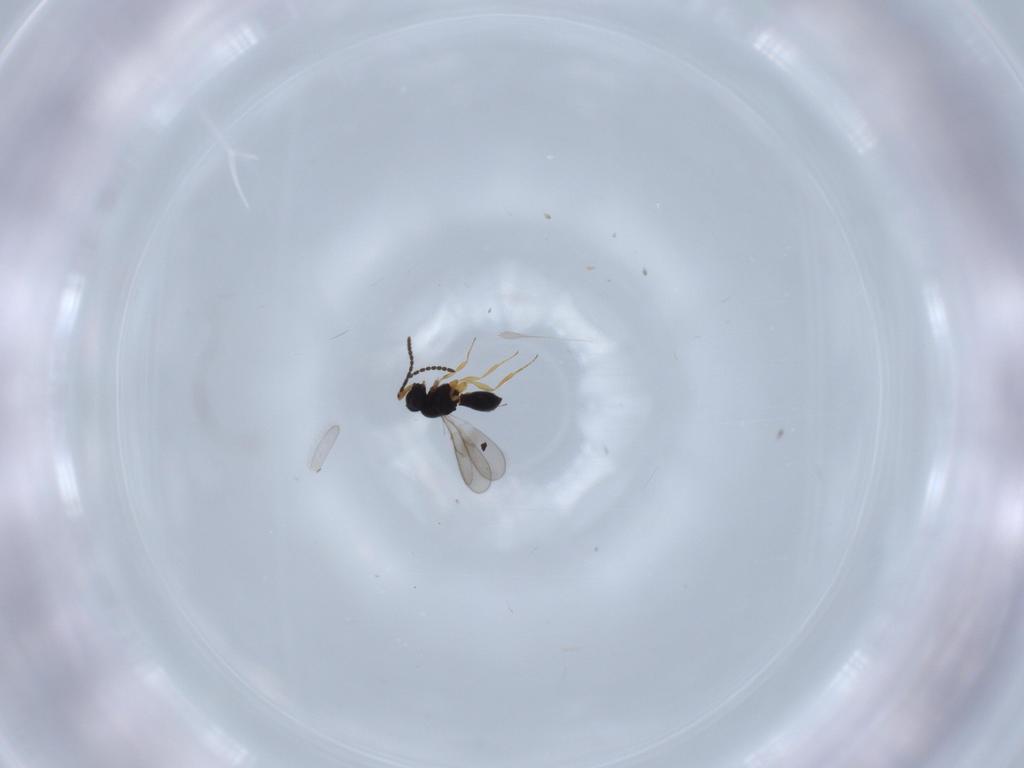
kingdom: Animalia
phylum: Arthropoda
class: Insecta
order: Hymenoptera
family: Scelionidae
